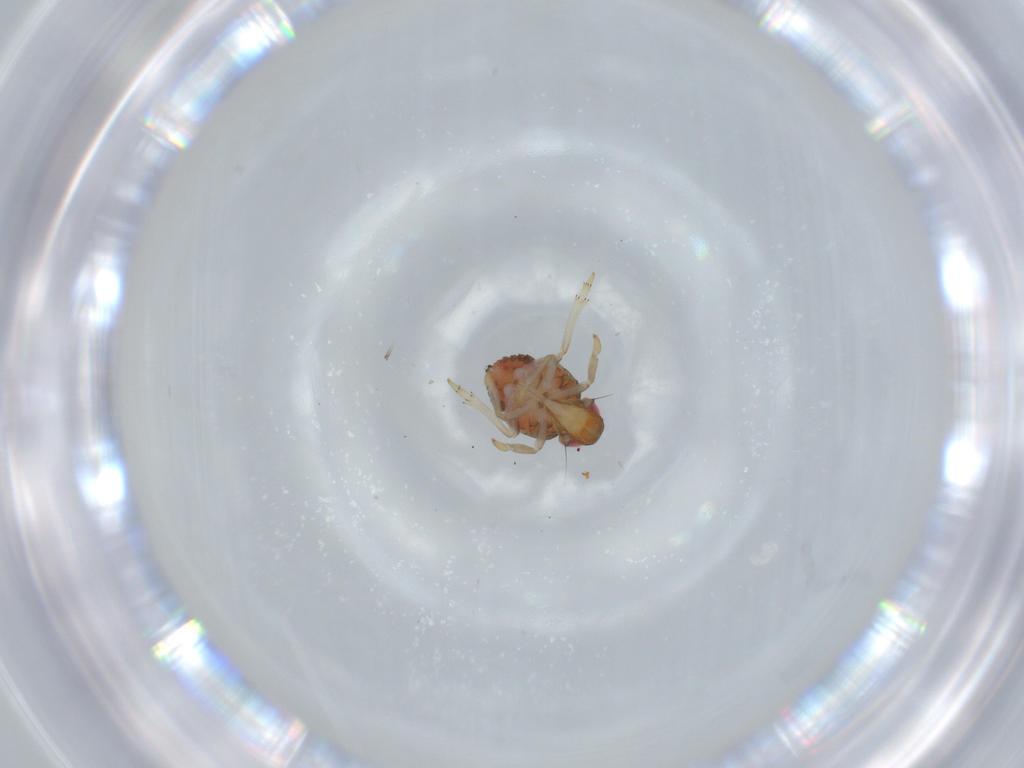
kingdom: Animalia
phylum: Arthropoda
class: Insecta
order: Hemiptera
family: Issidae
